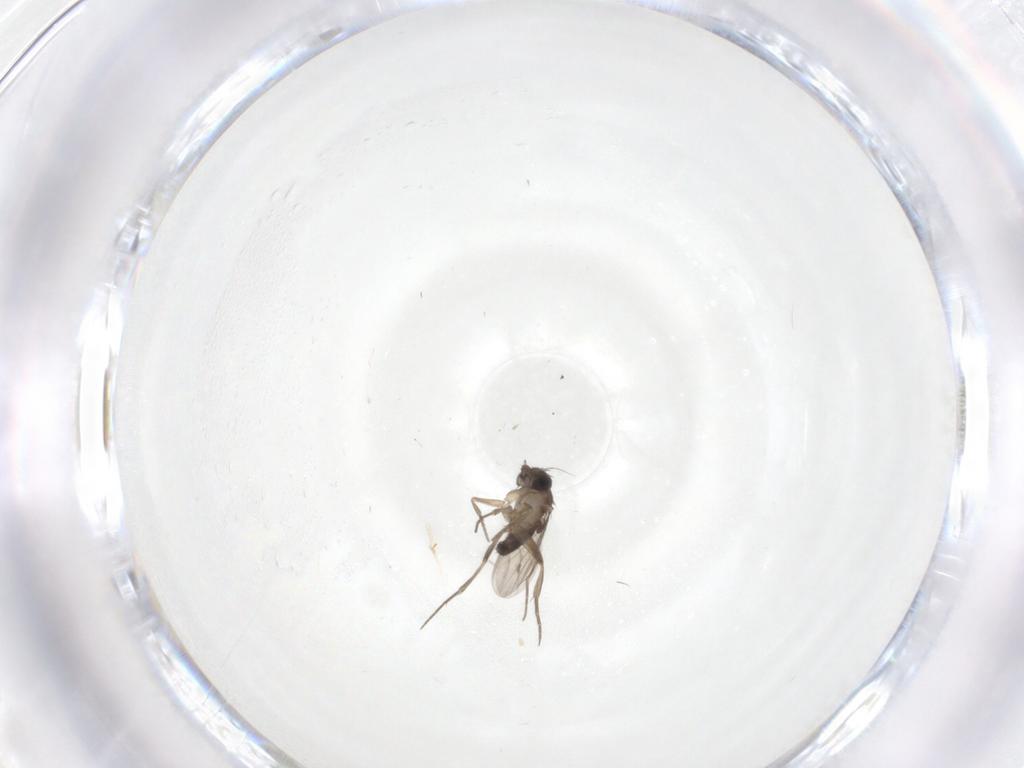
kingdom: Animalia
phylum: Arthropoda
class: Insecta
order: Diptera
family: Phoridae
